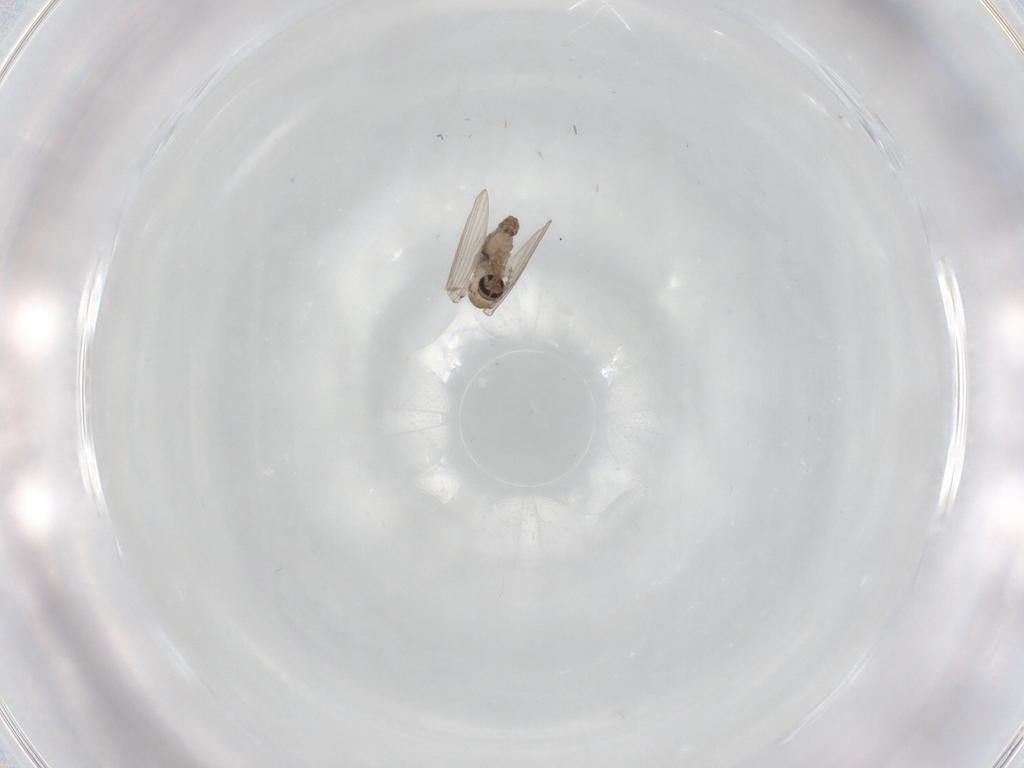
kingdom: Animalia
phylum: Arthropoda
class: Insecta
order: Diptera
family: Psychodidae
